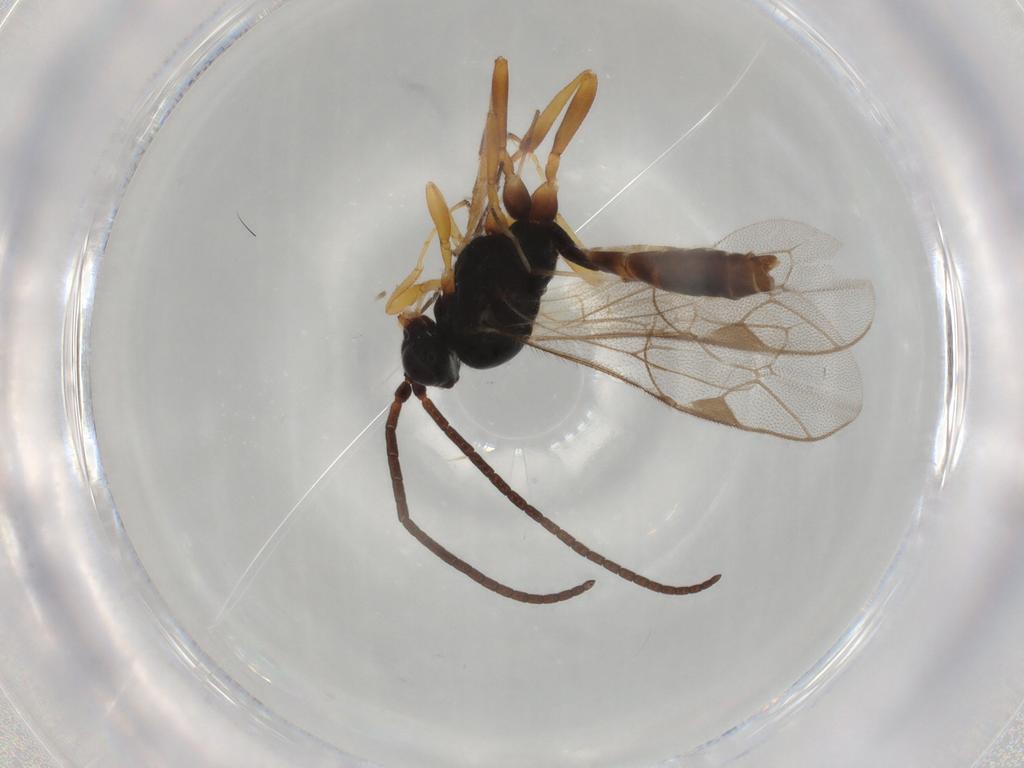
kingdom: Animalia
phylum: Arthropoda
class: Insecta
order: Hymenoptera
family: Ichneumonidae
